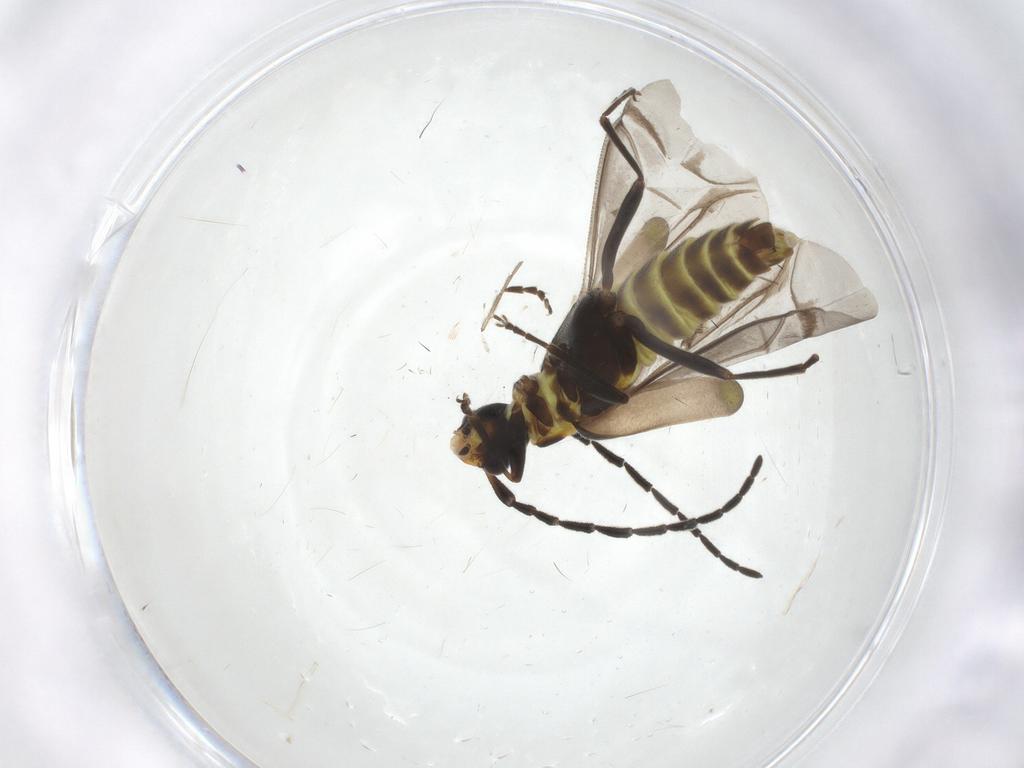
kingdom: Animalia
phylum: Arthropoda
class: Insecta
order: Coleoptera
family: Cantharidae
